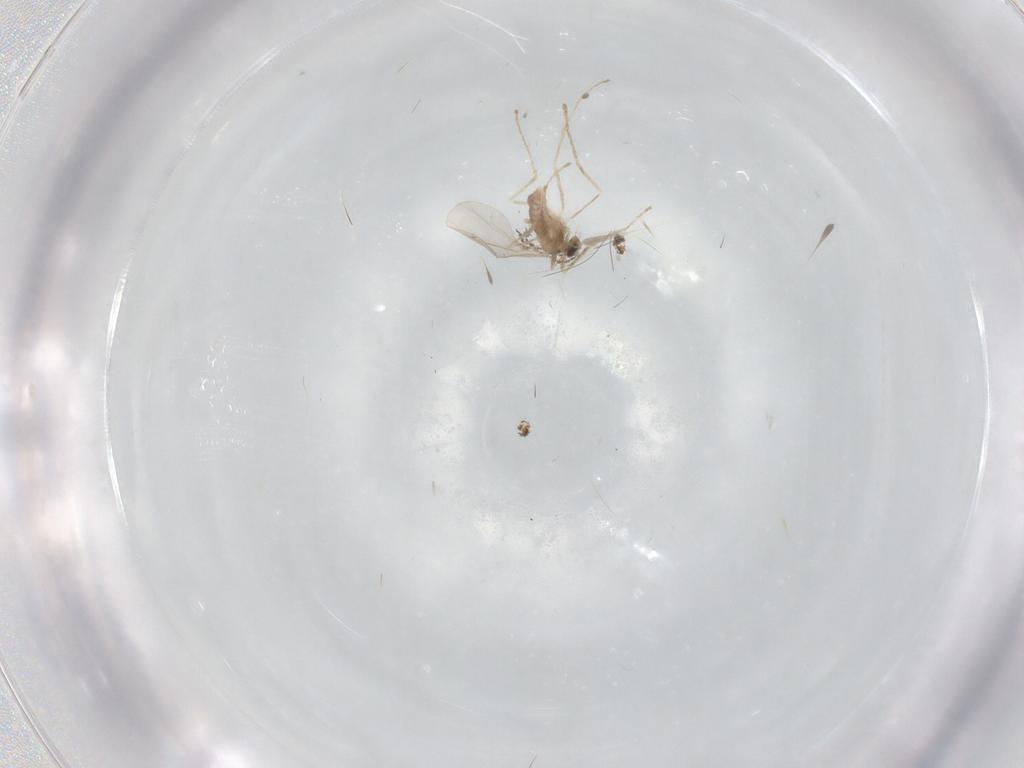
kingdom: Animalia
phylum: Arthropoda
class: Insecta
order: Diptera
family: Cecidomyiidae
